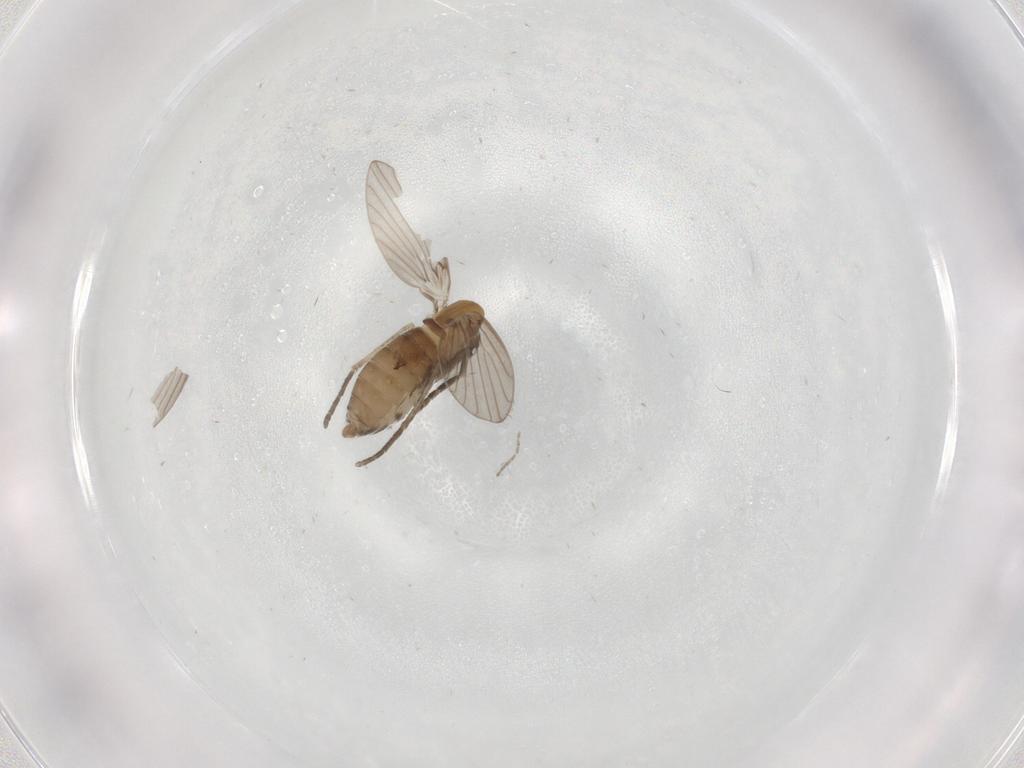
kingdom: Animalia
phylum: Arthropoda
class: Insecta
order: Diptera
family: Psychodidae
